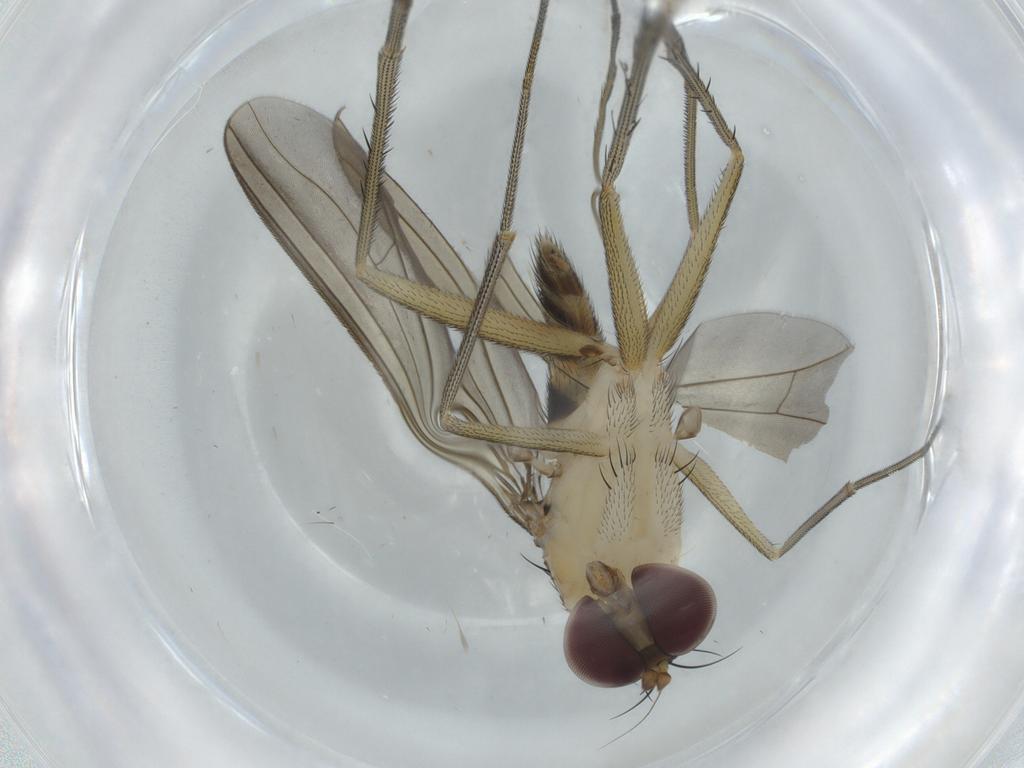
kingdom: Animalia
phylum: Arthropoda
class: Insecta
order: Diptera
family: Dolichopodidae
